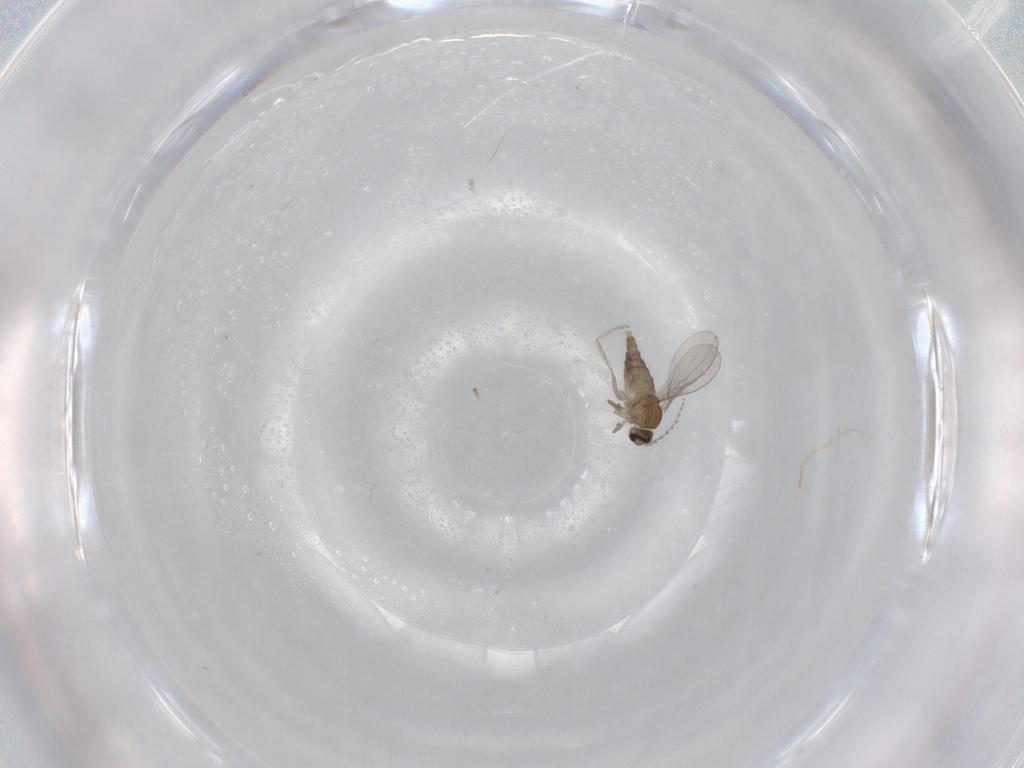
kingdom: Animalia
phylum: Arthropoda
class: Insecta
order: Diptera
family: Cecidomyiidae
